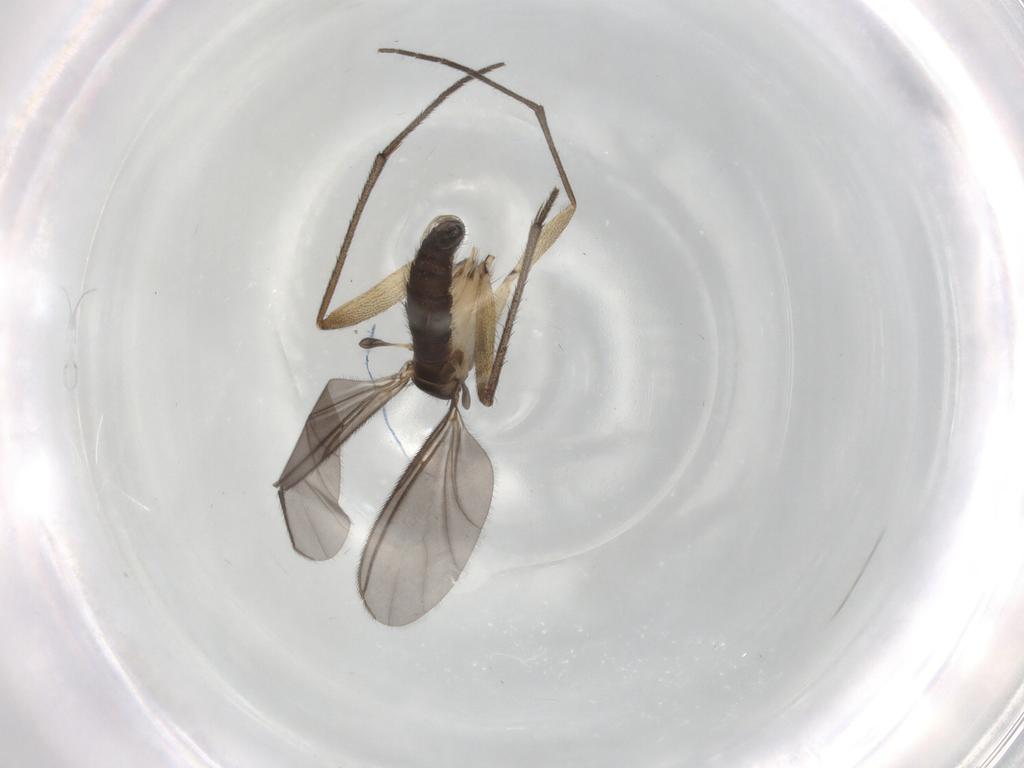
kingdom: Animalia
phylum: Arthropoda
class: Insecta
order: Diptera
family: Sciaridae
